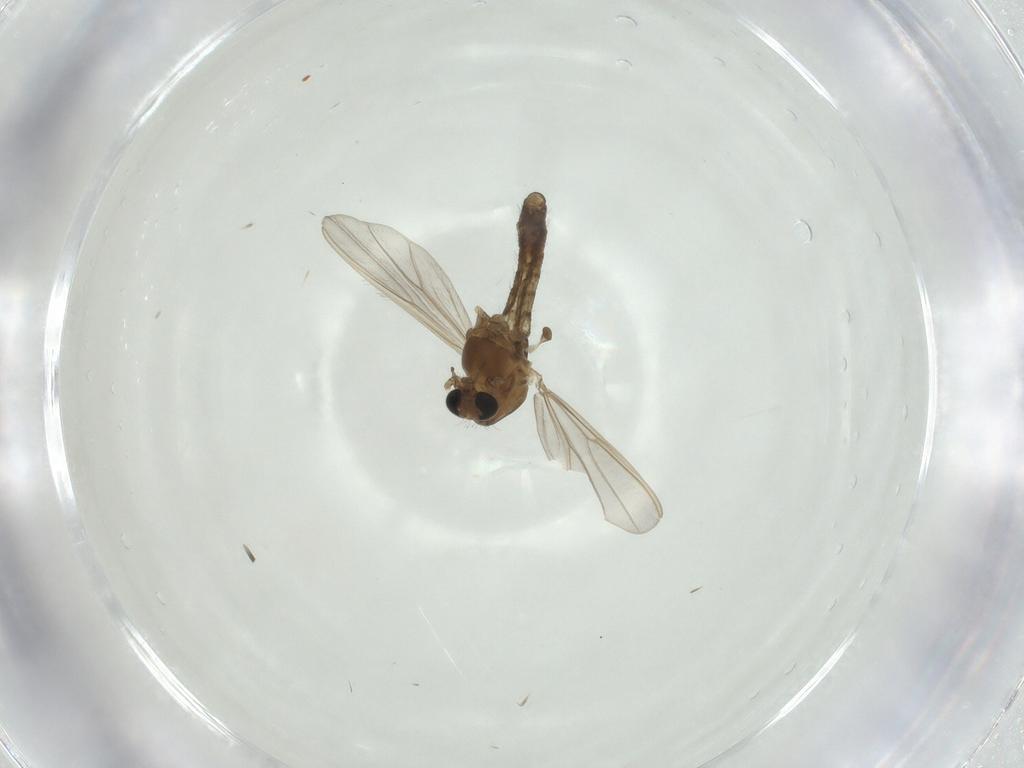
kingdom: Animalia
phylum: Arthropoda
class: Insecta
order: Diptera
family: Chironomidae
